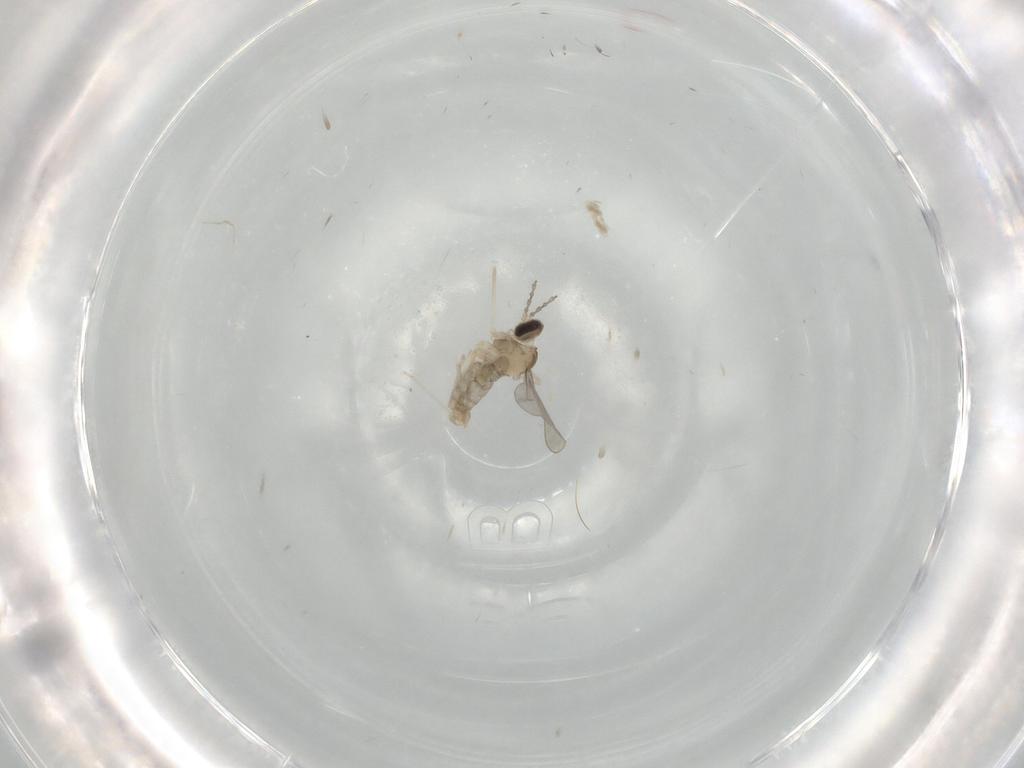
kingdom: Animalia
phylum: Arthropoda
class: Insecta
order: Diptera
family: Cecidomyiidae
